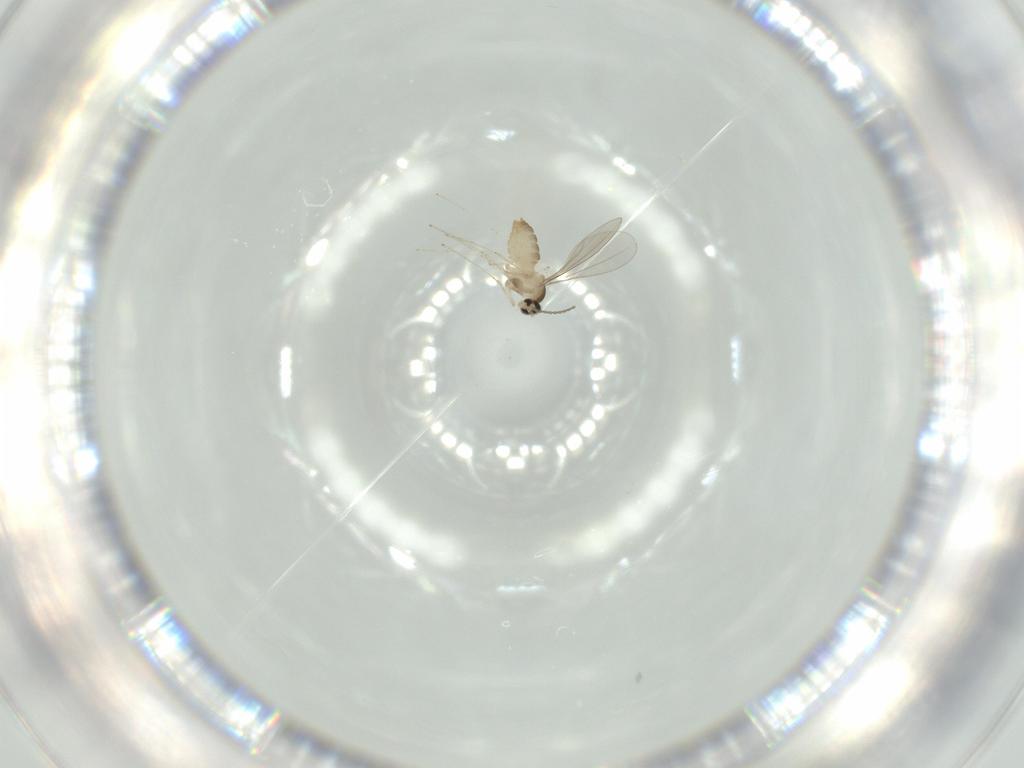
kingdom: Animalia
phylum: Arthropoda
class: Insecta
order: Diptera
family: Cecidomyiidae
